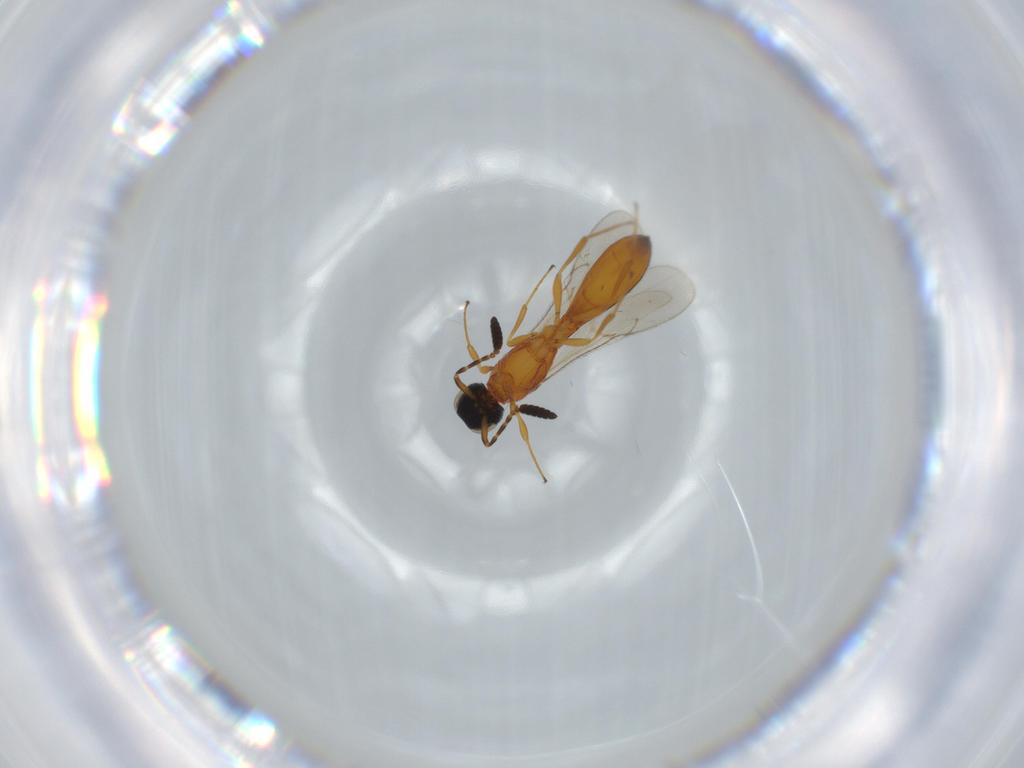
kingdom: Animalia
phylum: Arthropoda
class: Insecta
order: Hymenoptera
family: Scelionidae
